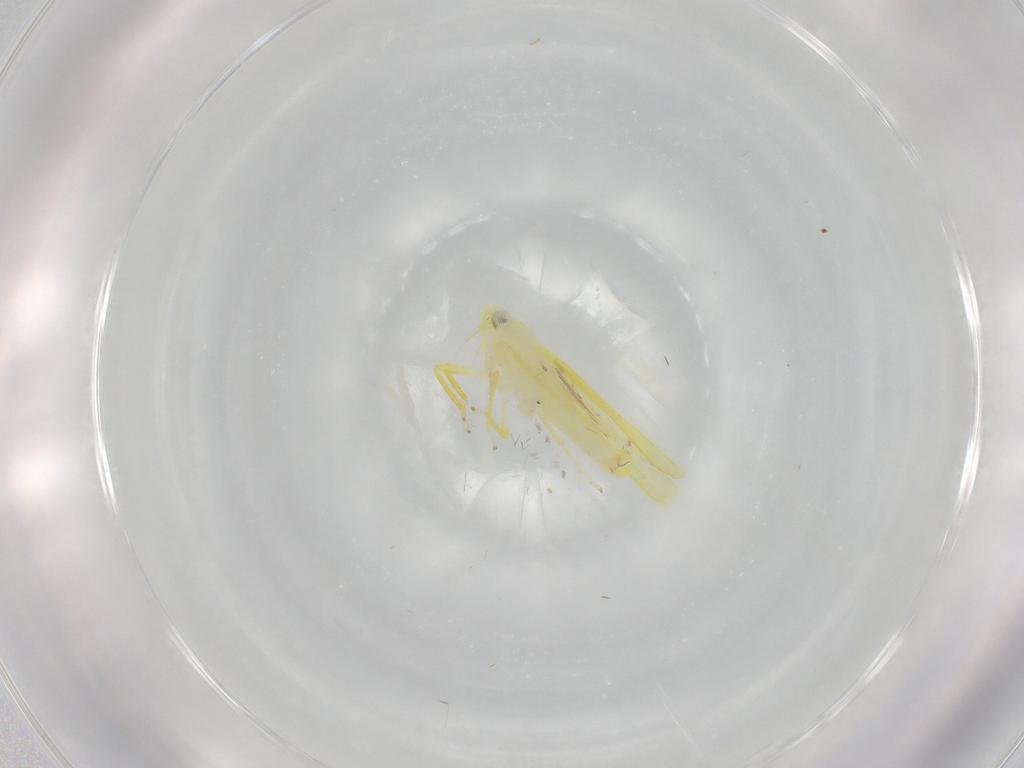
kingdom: Animalia
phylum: Arthropoda
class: Insecta
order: Hemiptera
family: Cicadellidae
